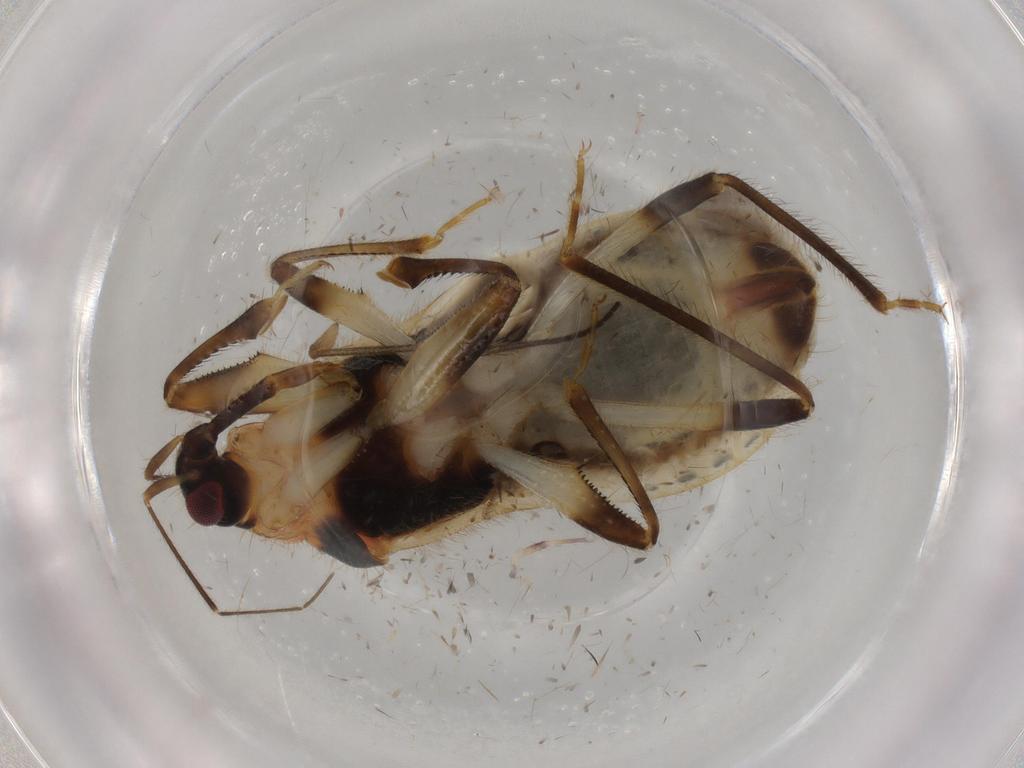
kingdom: Animalia
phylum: Arthropoda
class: Insecta
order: Hemiptera
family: Nabidae
